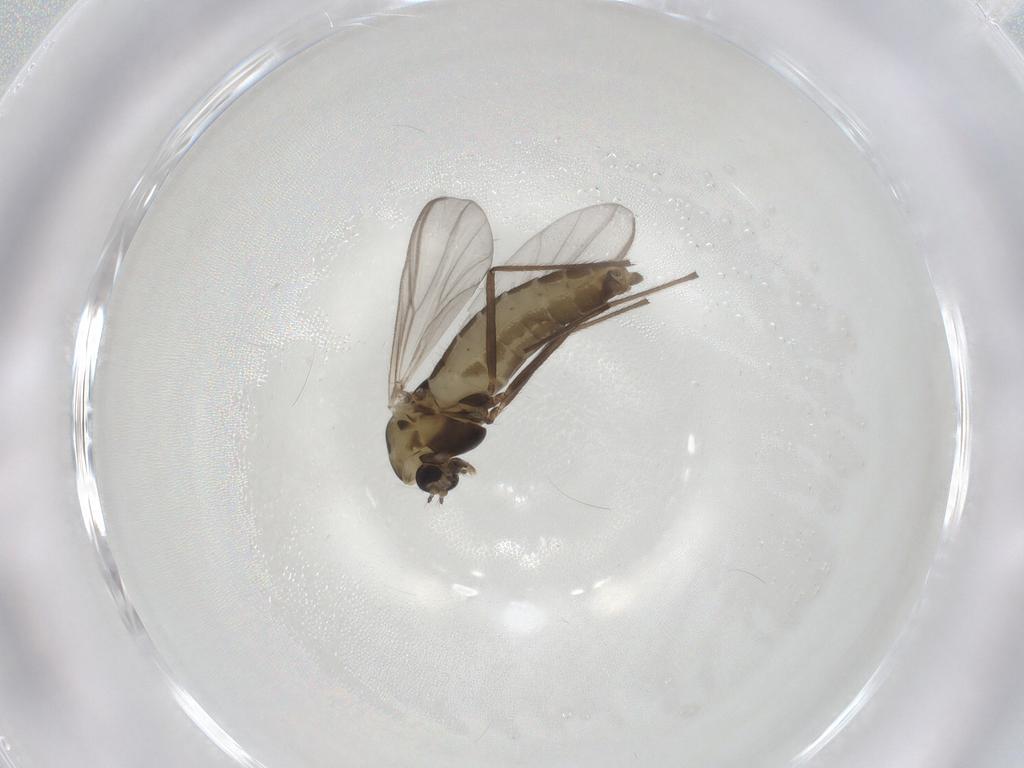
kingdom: Animalia
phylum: Arthropoda
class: Insecta
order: Diptera
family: Chironomidae
